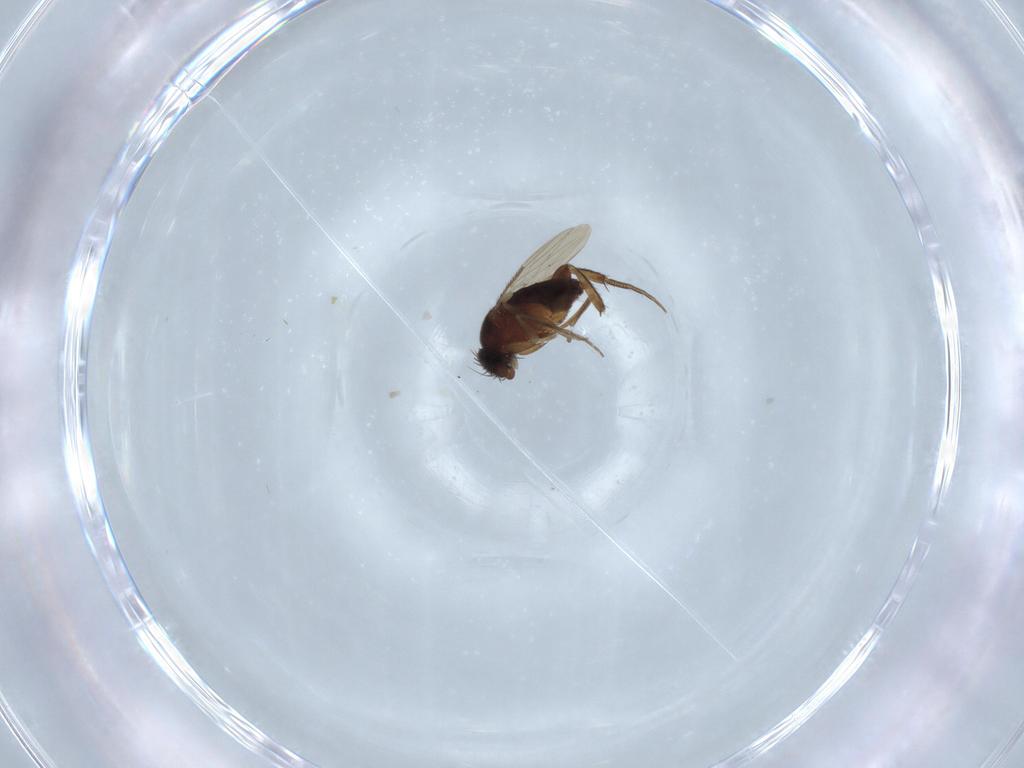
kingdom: Animalia
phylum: Arthropoda
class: Insecta
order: Diptera
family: Phoridae
